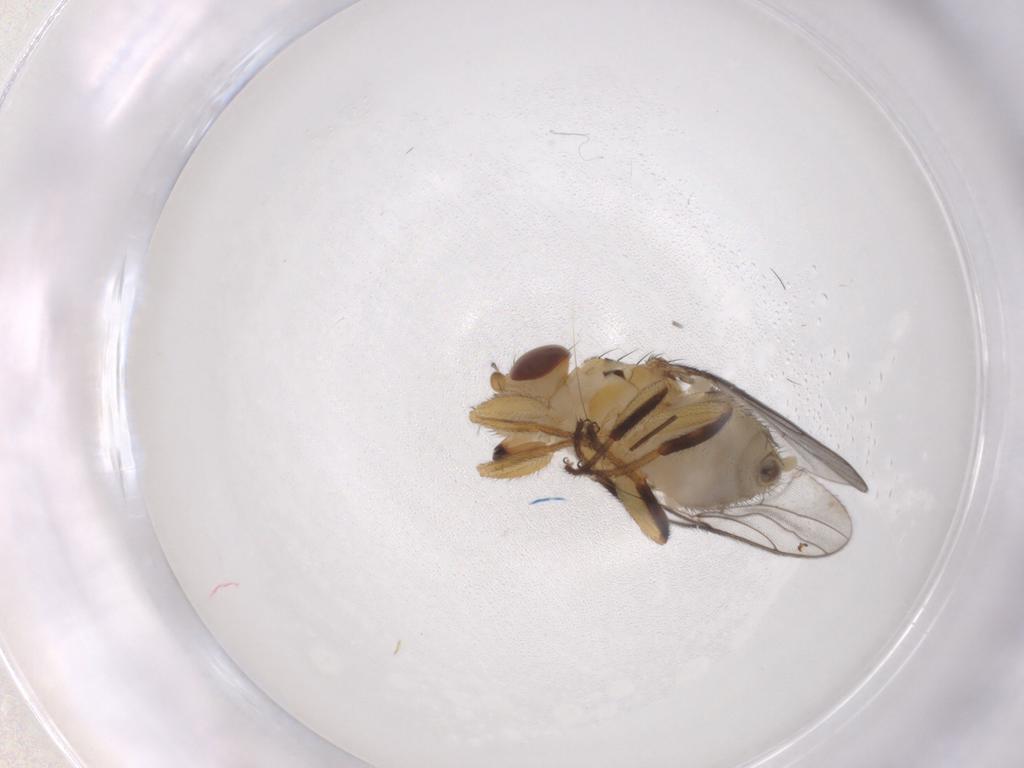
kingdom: Animalia
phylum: Arthropoda
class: Insecta
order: Diptera
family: Chloropidae
